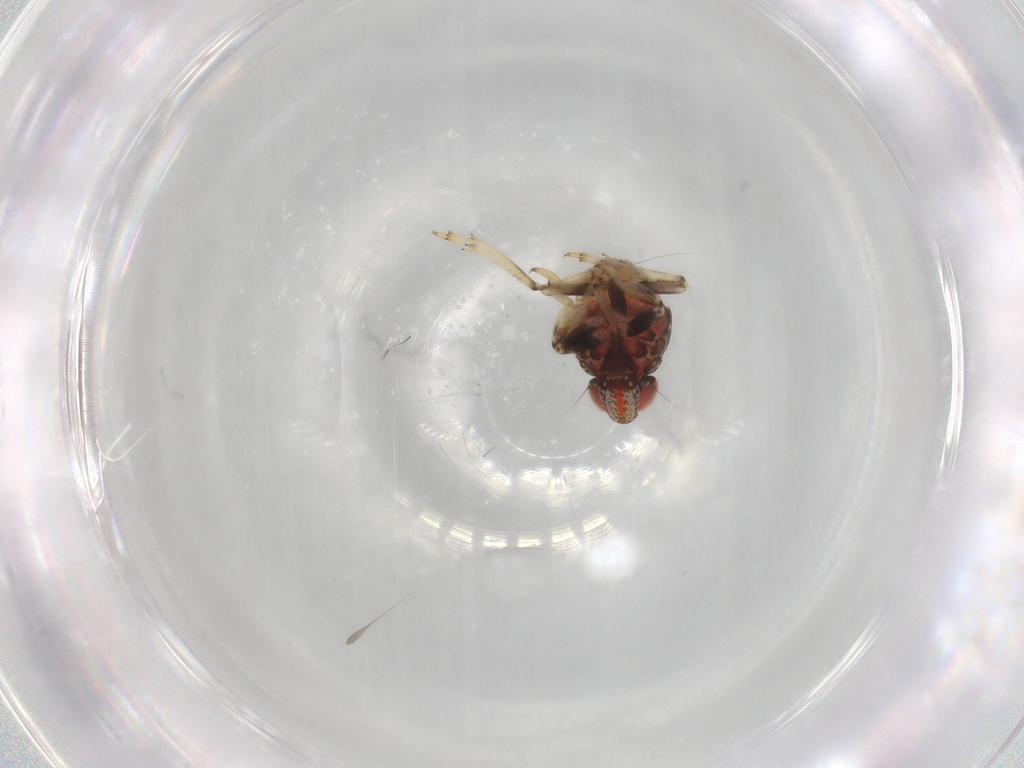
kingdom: Animalia
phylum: Arthropoda
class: Insecta
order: Hemiptera
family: Issidae
